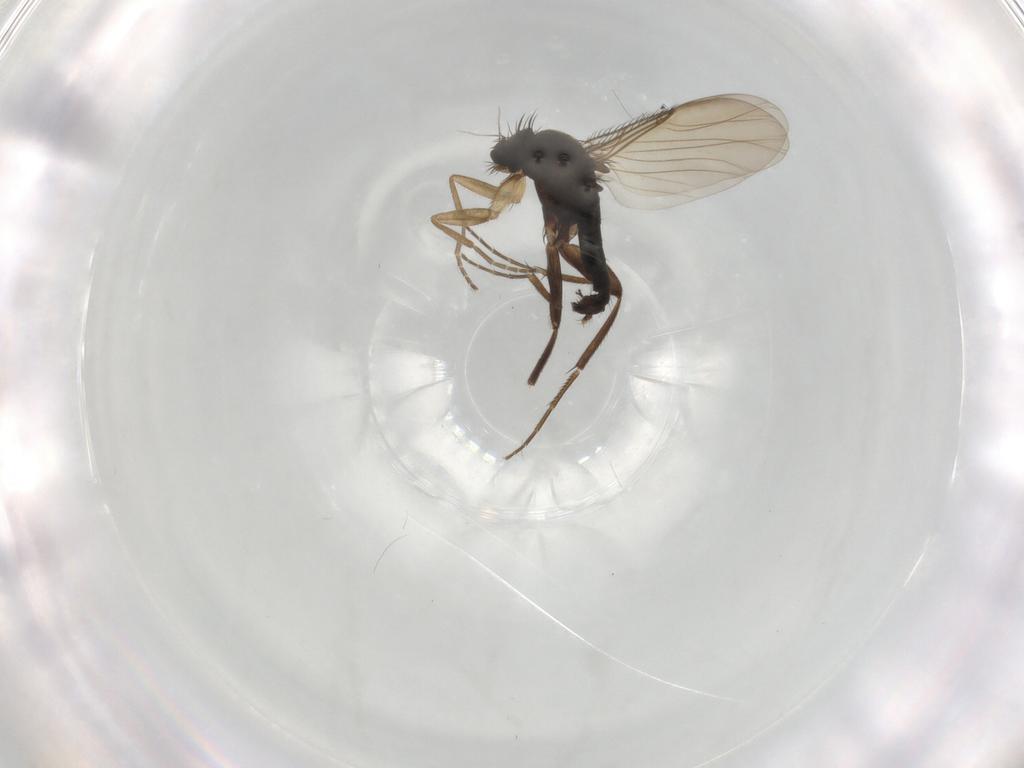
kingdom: Animalia
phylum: Arthropoda
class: Insecta
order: Diptera
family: Phoridae
